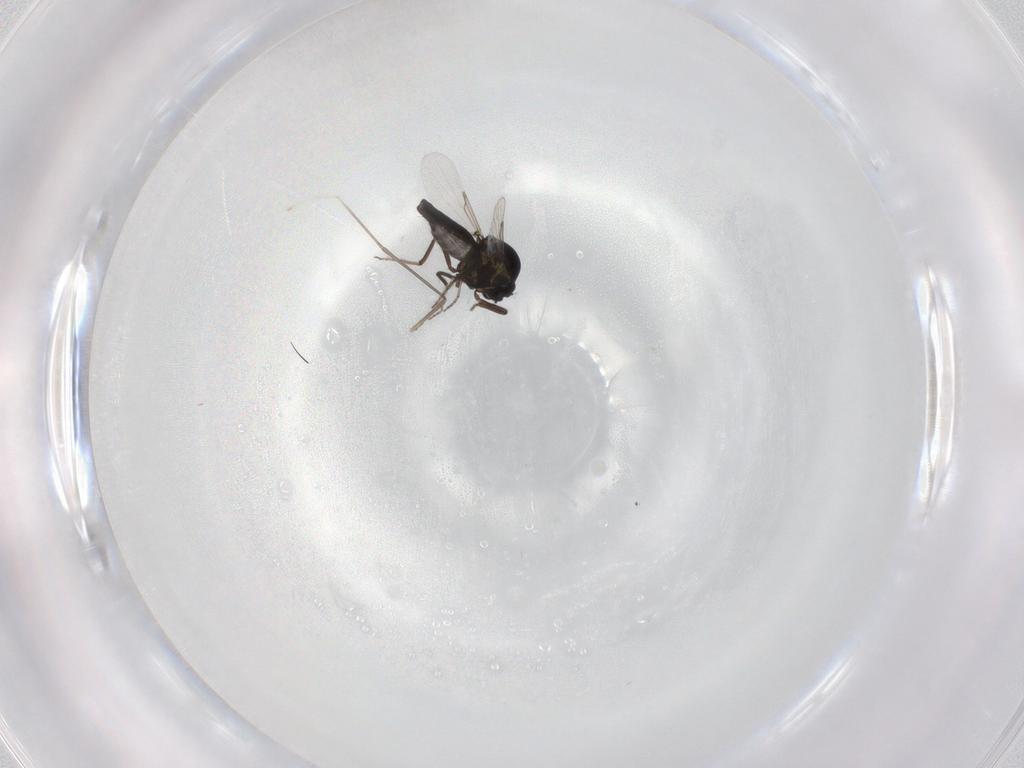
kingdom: Animalia
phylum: Arthropoda
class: Insecta
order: Diptera
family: Ceratopogonidae
